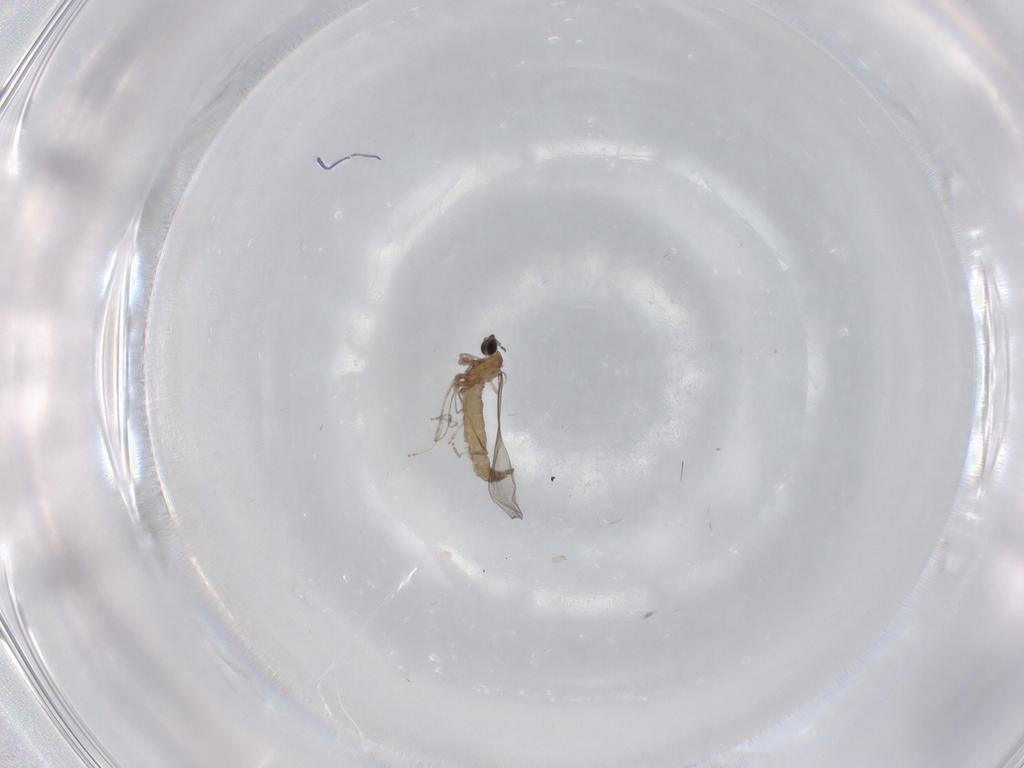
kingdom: Animalia
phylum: Arthropoda
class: Insecta
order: Diptera
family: Cecidomyiidae
